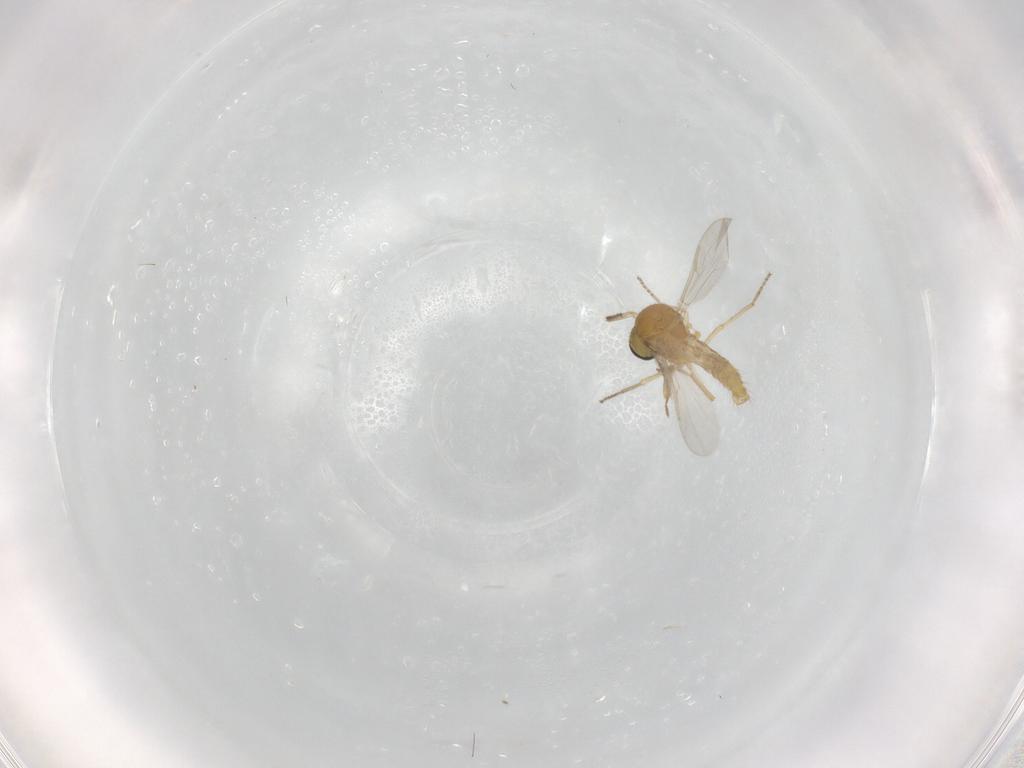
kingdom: Animalia
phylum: Arthropoda
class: Insecta
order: Diptera
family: Ceratopogonidae
